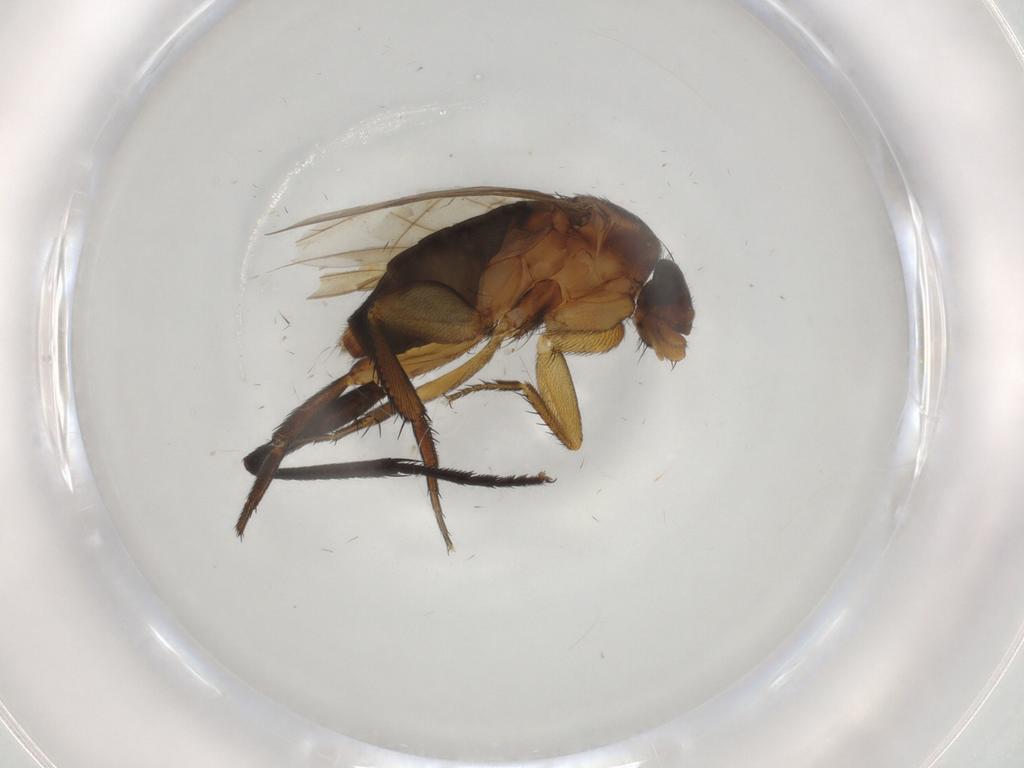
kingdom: Animalia
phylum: Arthropoda
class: Insecta
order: Diptera
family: Phoridae
